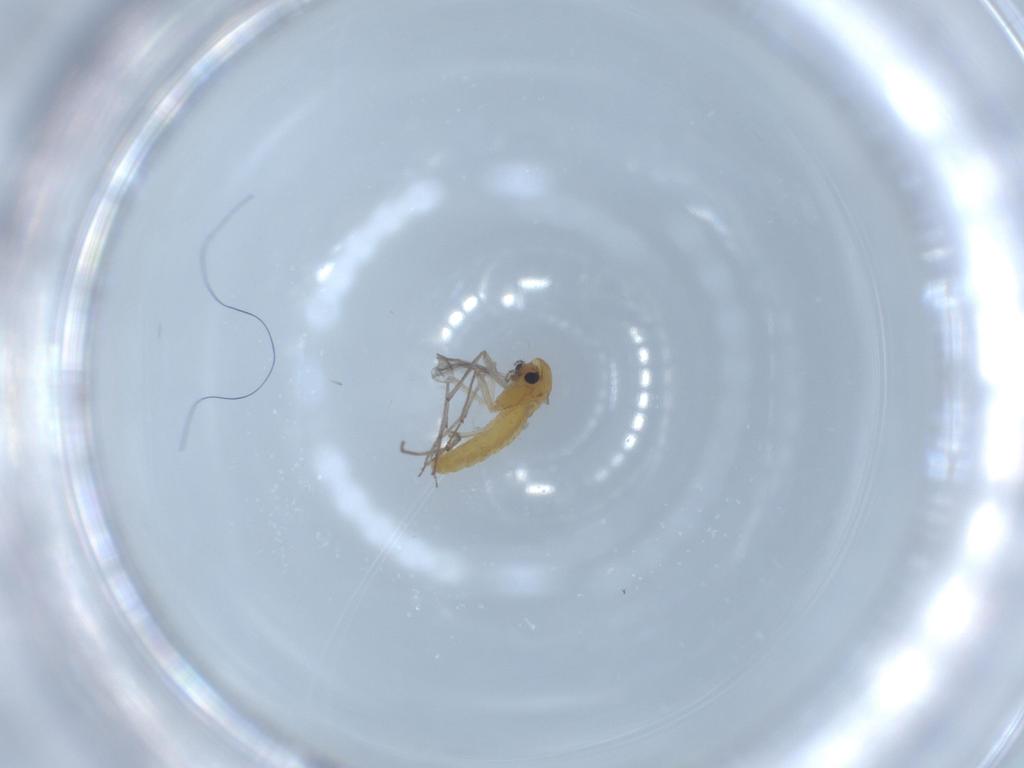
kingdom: Animalia
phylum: Arthropoda
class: Insecta
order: Diptera
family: Chironomidae
